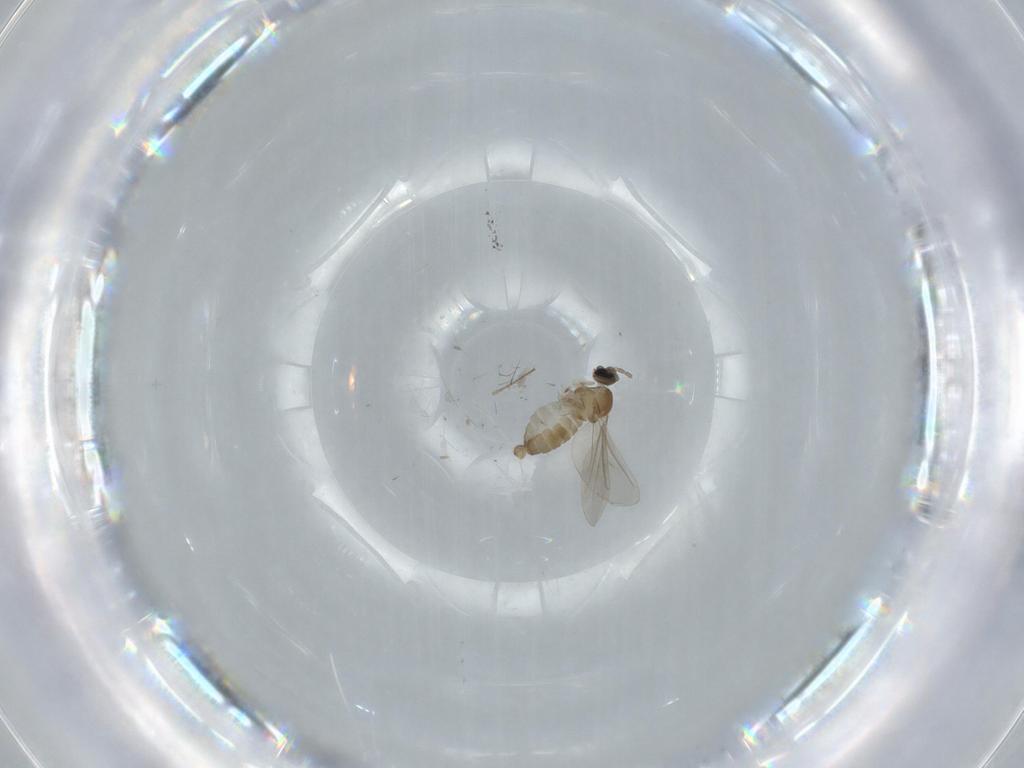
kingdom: Animalia
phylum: Arthropoda
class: Insecta
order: Diptera
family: Cecidomyiidae
